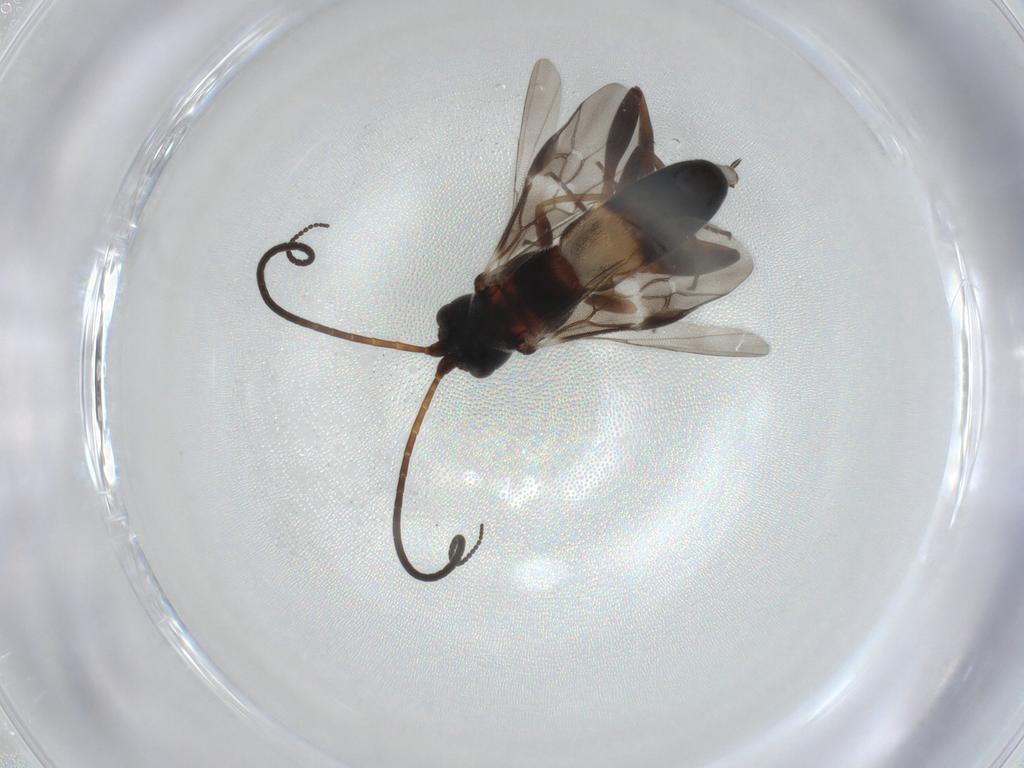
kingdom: Animalia
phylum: Arthropoda
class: Insecta
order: Hymenoptera
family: Braconidae
